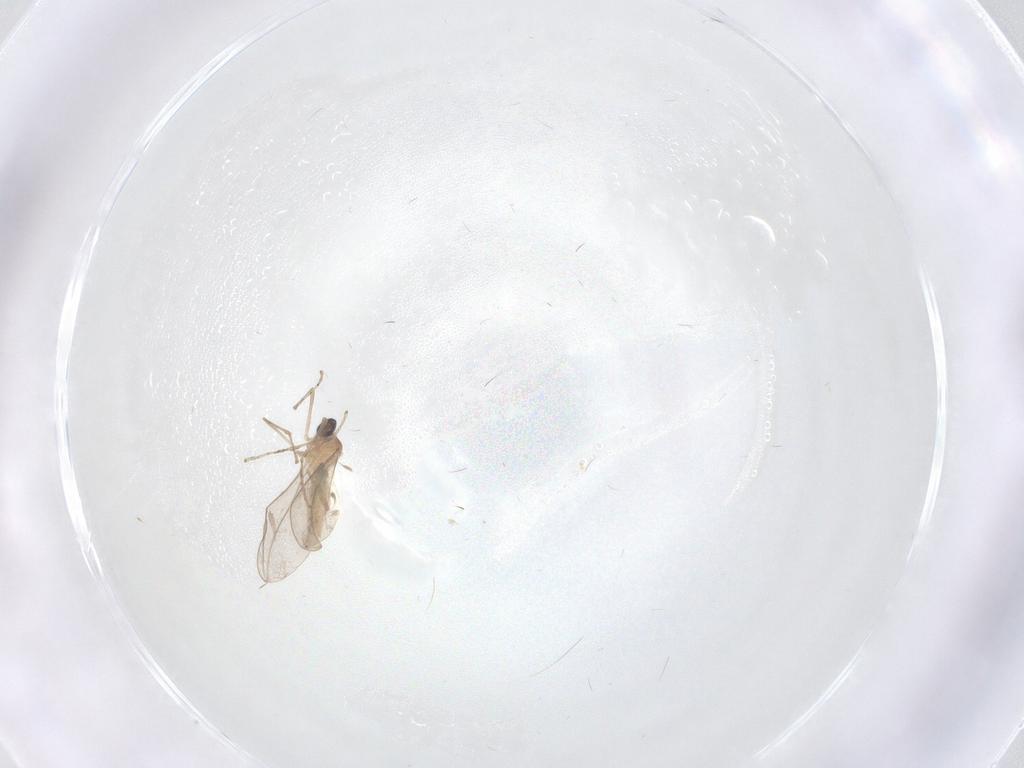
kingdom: Animalia
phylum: Arthropoda
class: Insecta
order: Diptera
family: Cecidomyiidae
